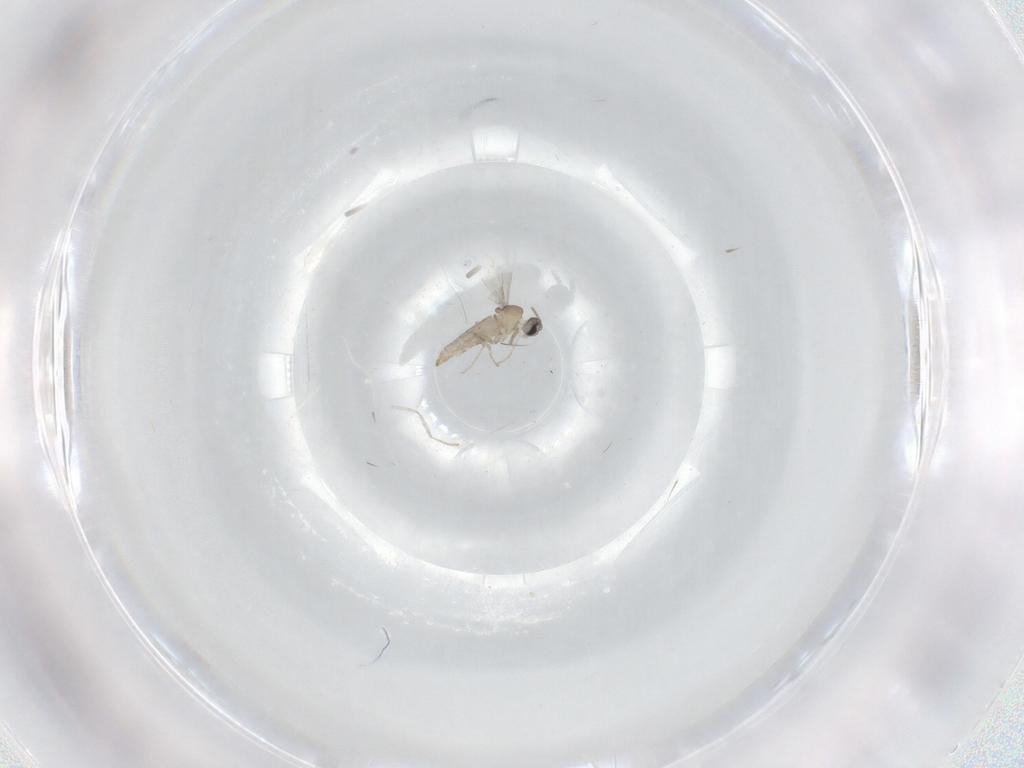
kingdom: Animalia
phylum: Arthropoda
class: Insecta
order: Diptera
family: Cecidomyiidae
